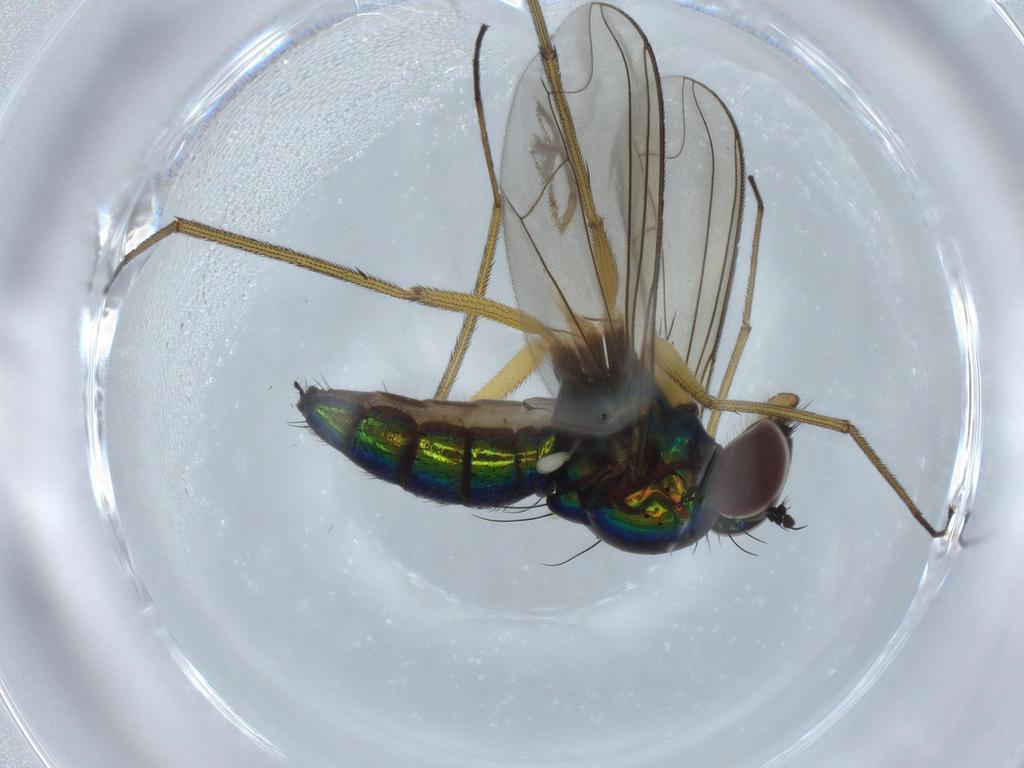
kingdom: Animalia
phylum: Arthropoda
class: Insecta
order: Diptera
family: Dolichopodidae
